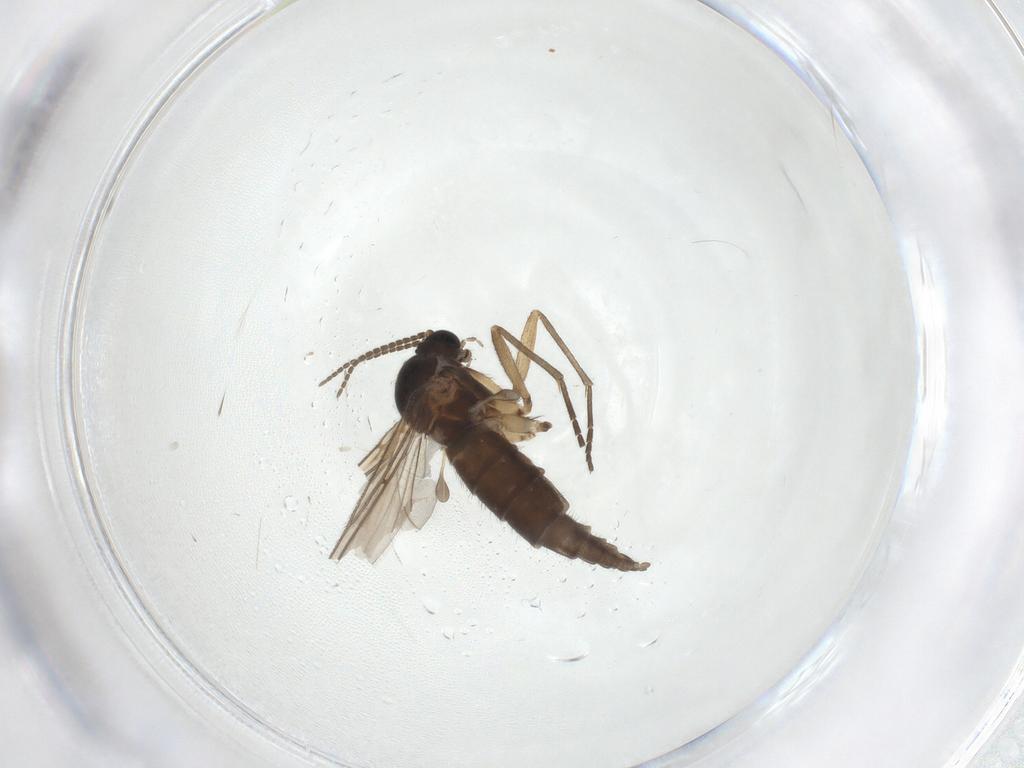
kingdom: Animalia
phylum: Arthropoda
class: Insecta
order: Diptera
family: Sciaridae
